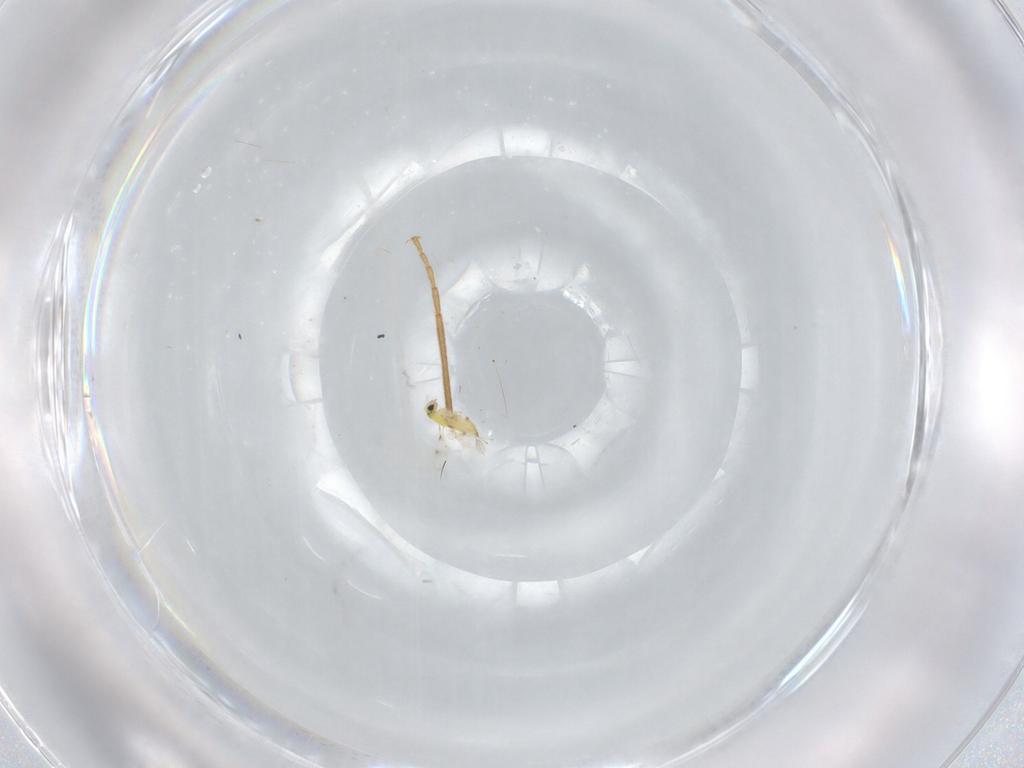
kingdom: Animalia
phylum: Arthropoda
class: Insecta
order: Hymenoptera
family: Formicidae
